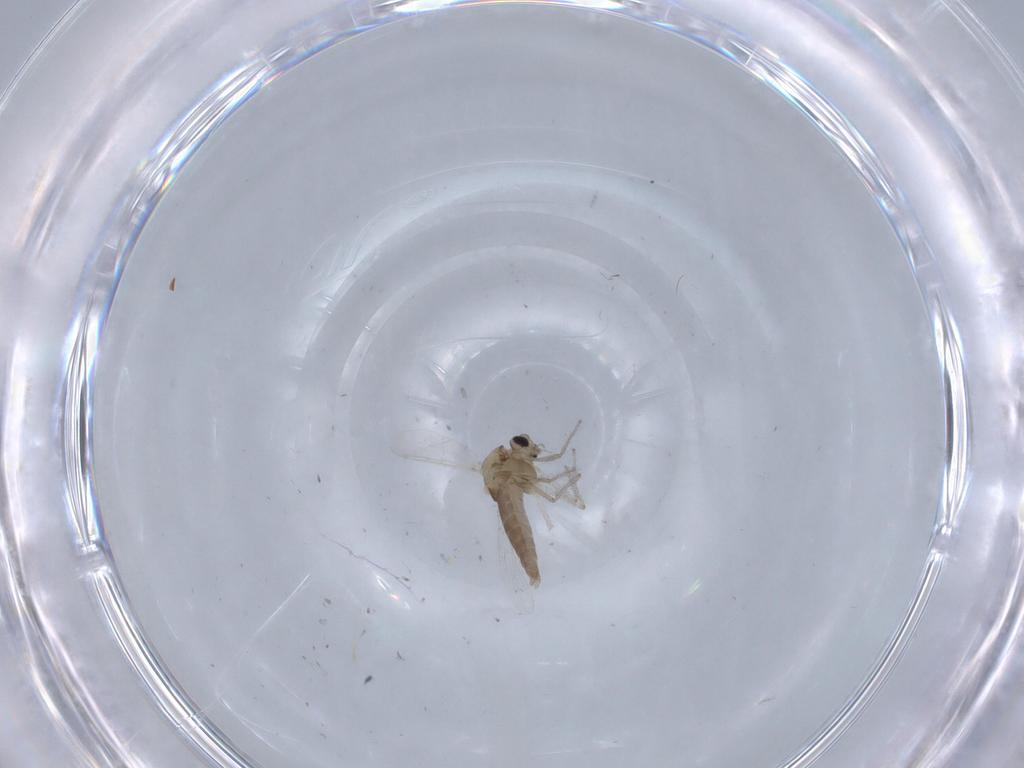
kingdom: Animalia
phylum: Arthropoda
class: Insecta
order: Diptera
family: Chironomidae
